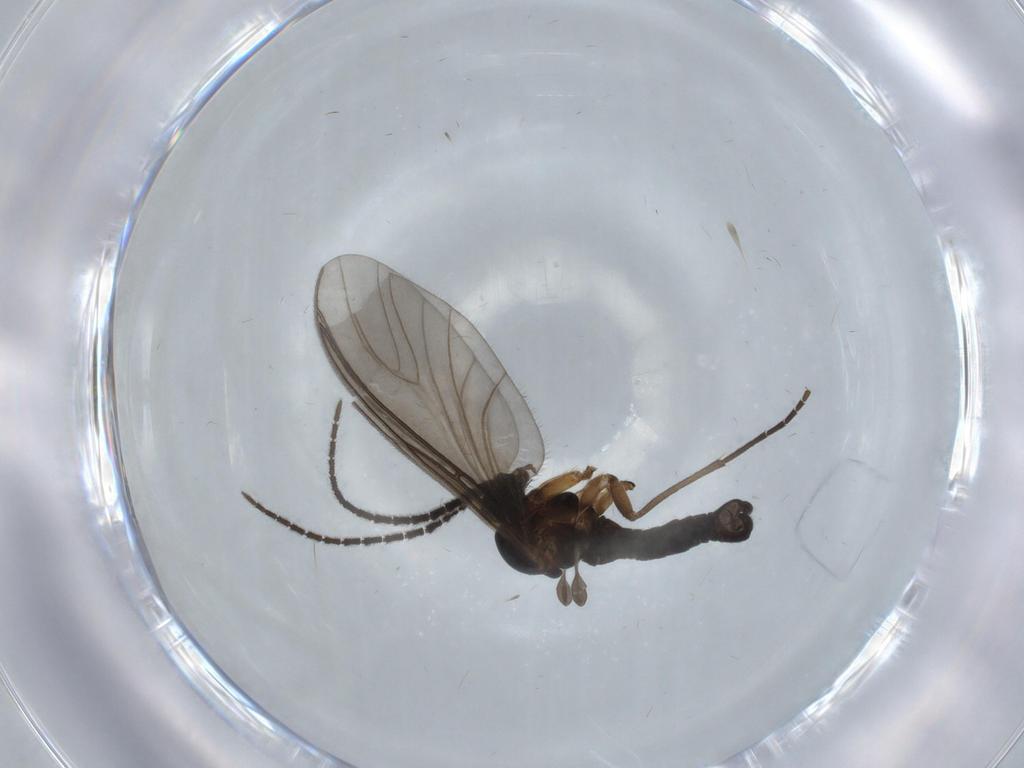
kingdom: Animalia
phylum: Arthropoda
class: Insecta
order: Diptera
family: Sciaridae
